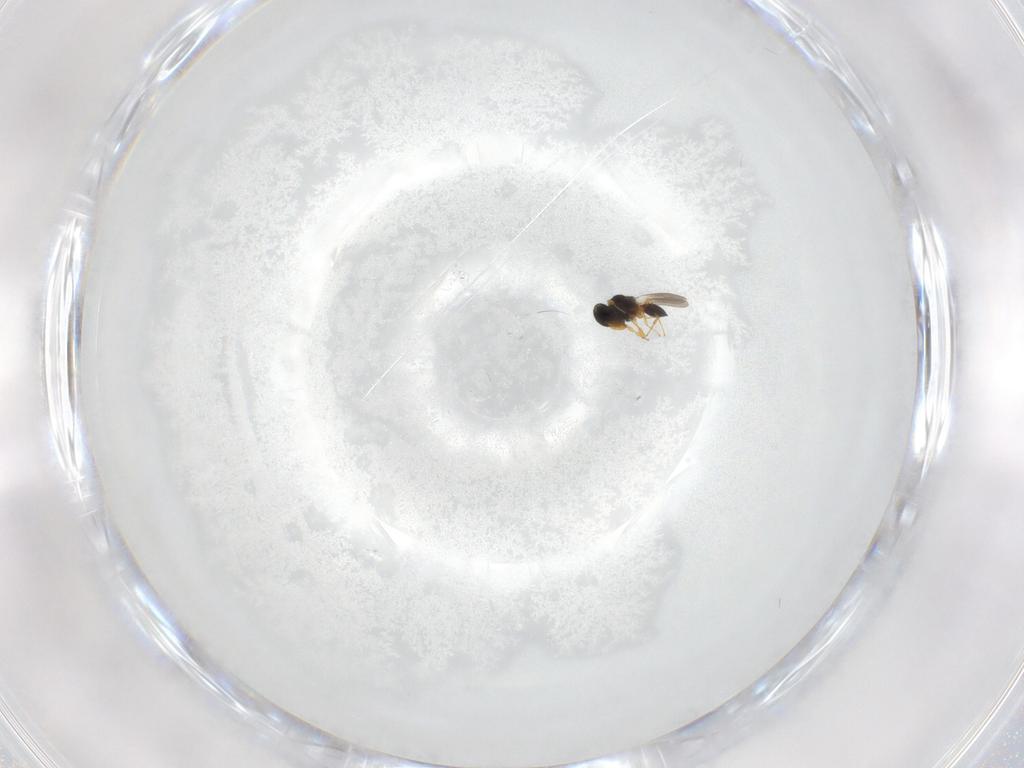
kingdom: Animalia
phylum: Arthropoda
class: Insecta
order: Hymenoptera
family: Platygastridae
